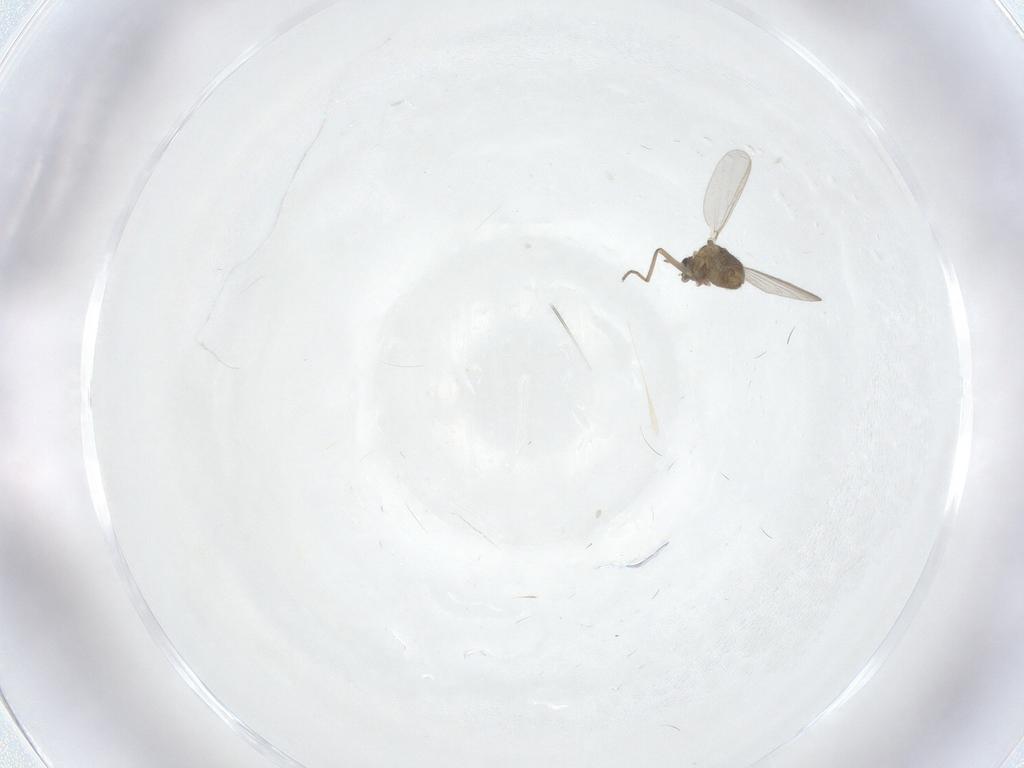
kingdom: Animalia
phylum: Arthropoda
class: Insecta
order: Diptera
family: Chironomidae
